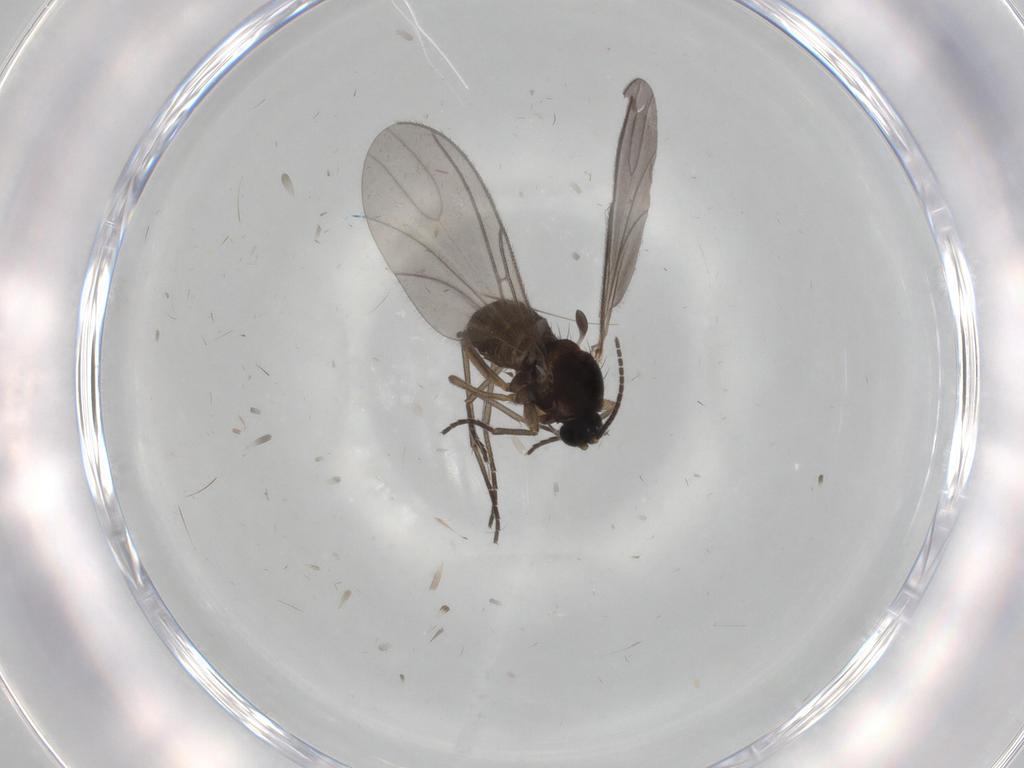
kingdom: Animalia
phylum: Arthropoda
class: Insecta
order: Diptera
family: Sciaridae
